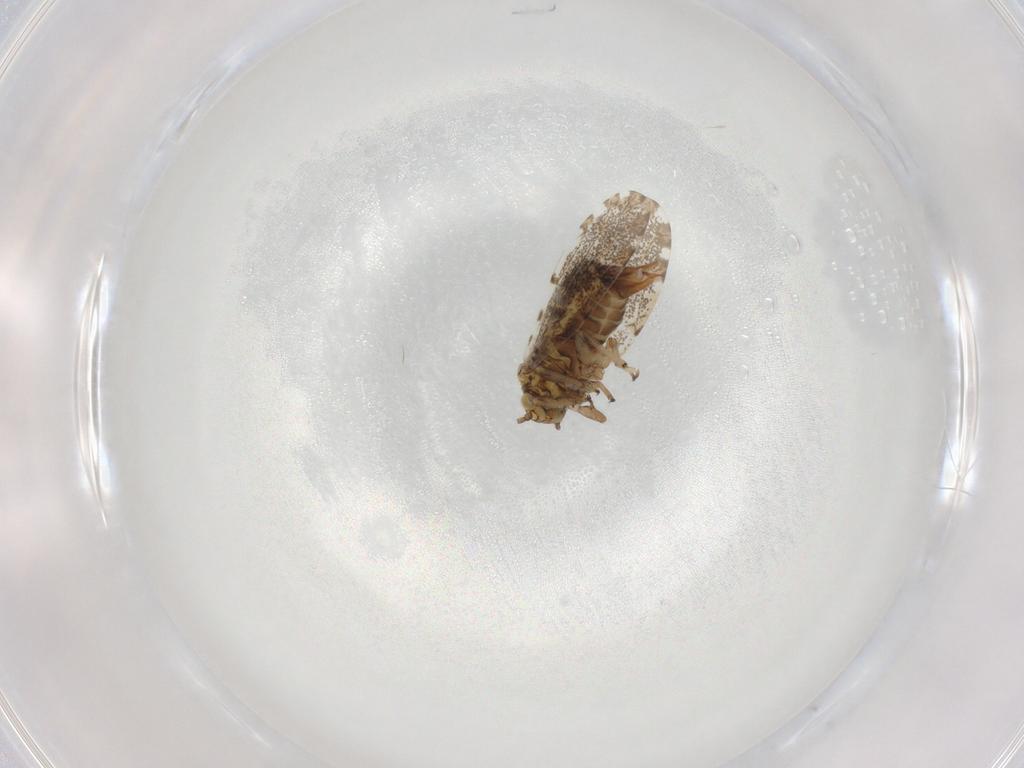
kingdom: Animalia
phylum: Arthropoda
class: Insecta
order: Hemiptera
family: Psylloidea_incertae_sedis
